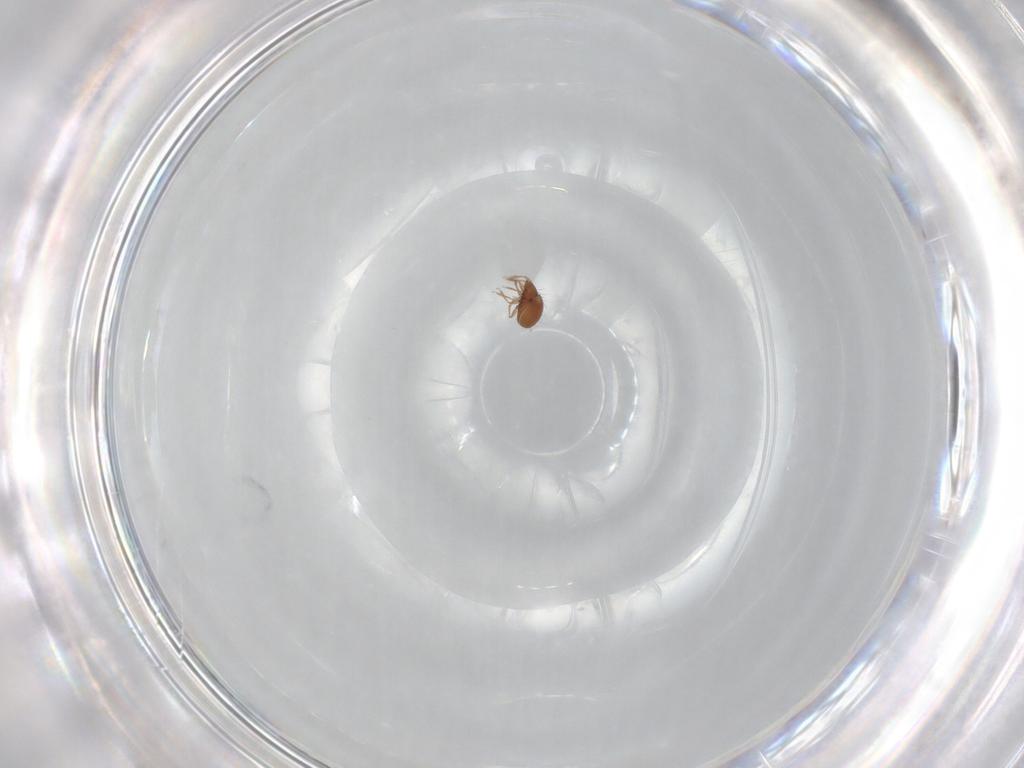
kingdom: Animalia
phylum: Arthropoda
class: Arachnida
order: Sarcoptiformes
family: Oribatulidae
